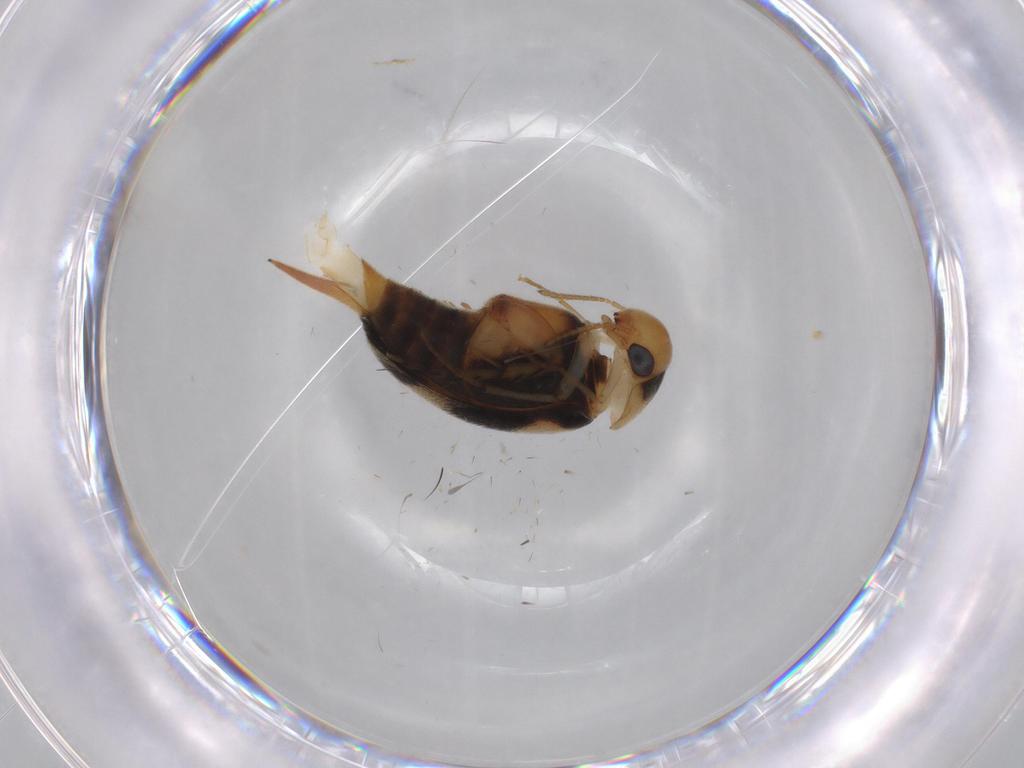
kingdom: Animalia
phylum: Arthropoda
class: Insecta
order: Coleoptera
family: Mordellidae
